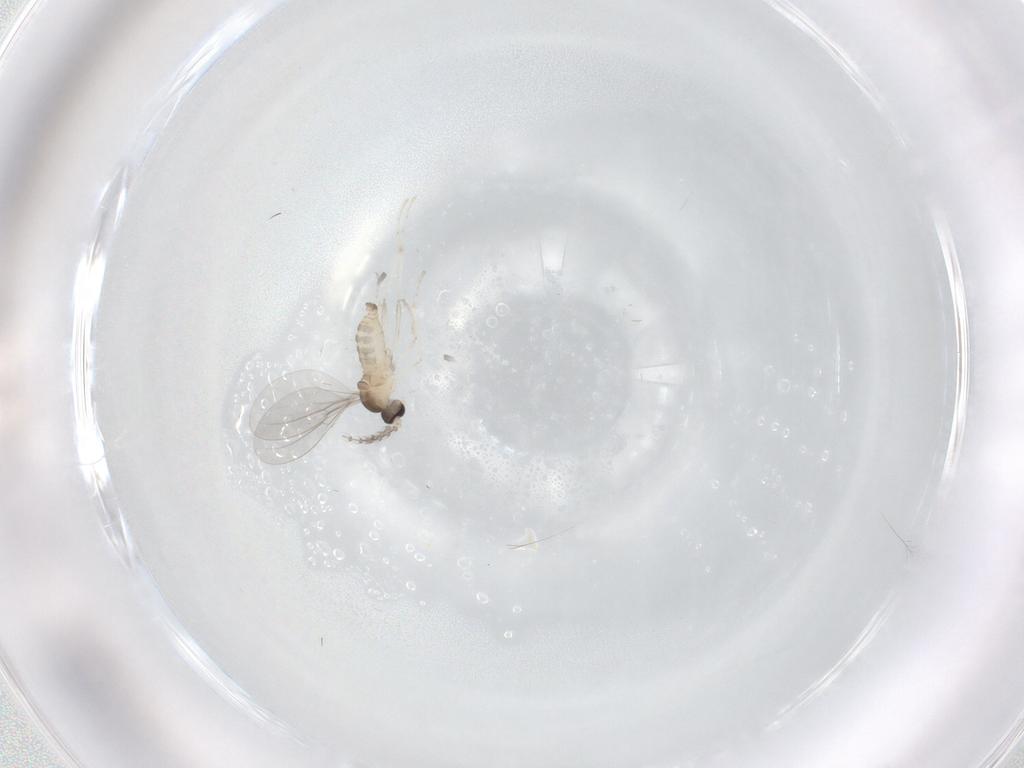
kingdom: Animalia
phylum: Arthropoda
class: Insecta
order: Diptera
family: Cecidomyiidae
